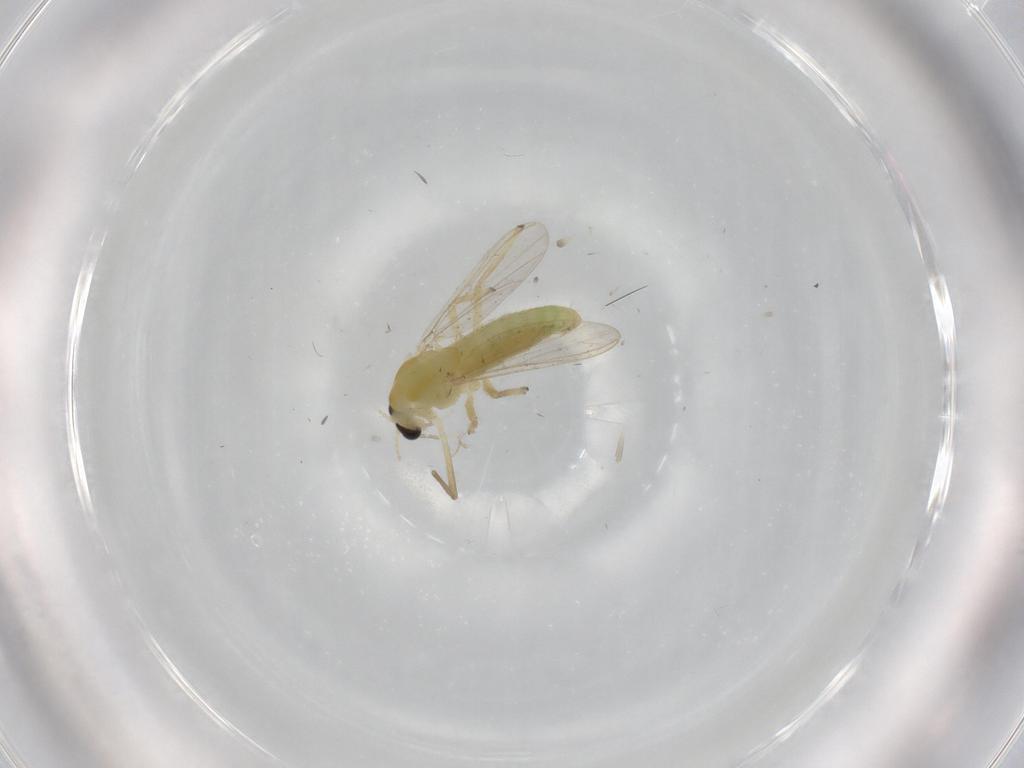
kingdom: Animalia
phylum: Arthropoda
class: Insecta
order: Diptera
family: Chironomidae
